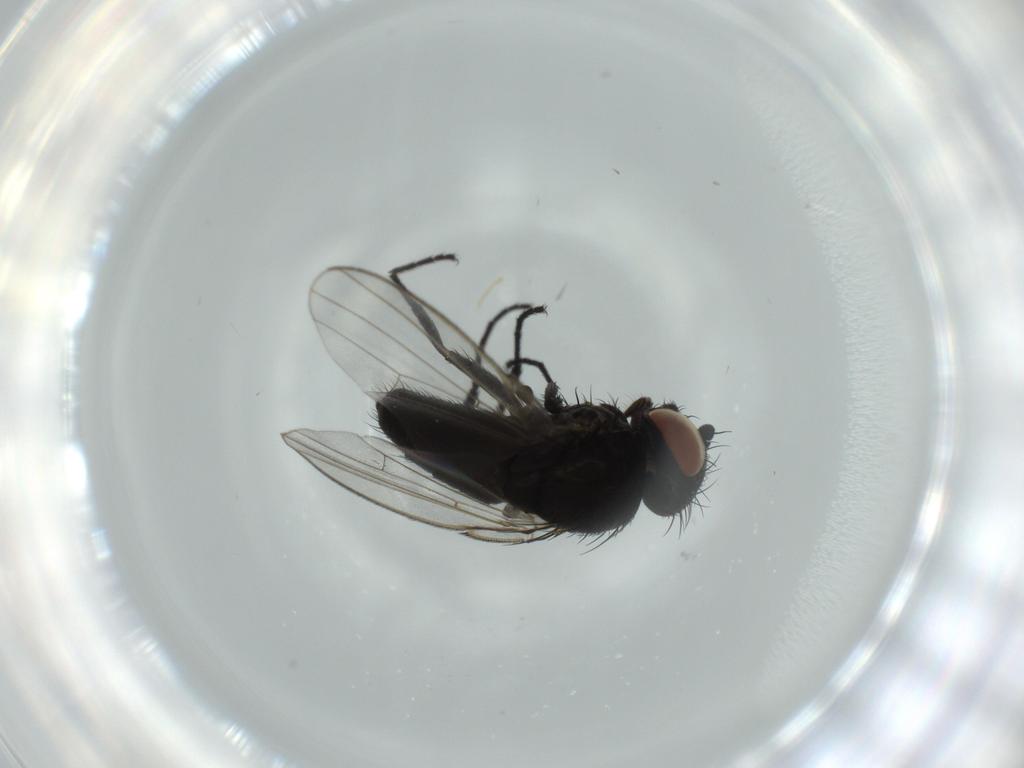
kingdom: Animalia
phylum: Arthropoda
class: Insecta
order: Diptera
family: Milichiidae
